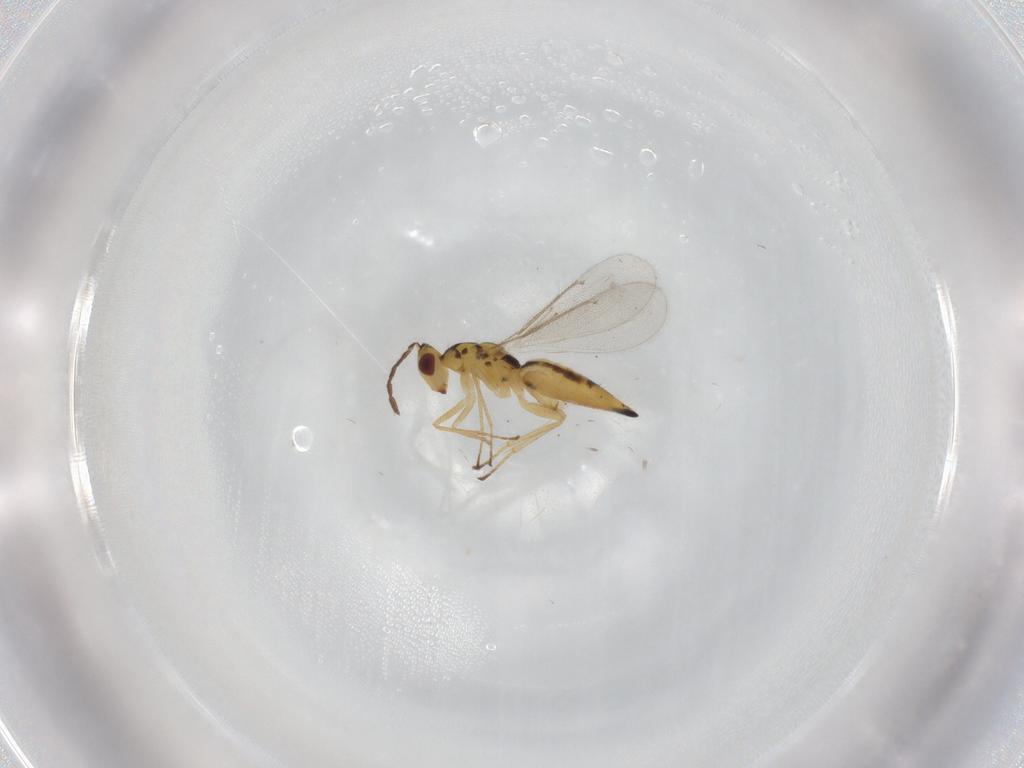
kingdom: Animalia
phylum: Arthropoda
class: Insecta
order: Hymenoptera
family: Eulophidae
